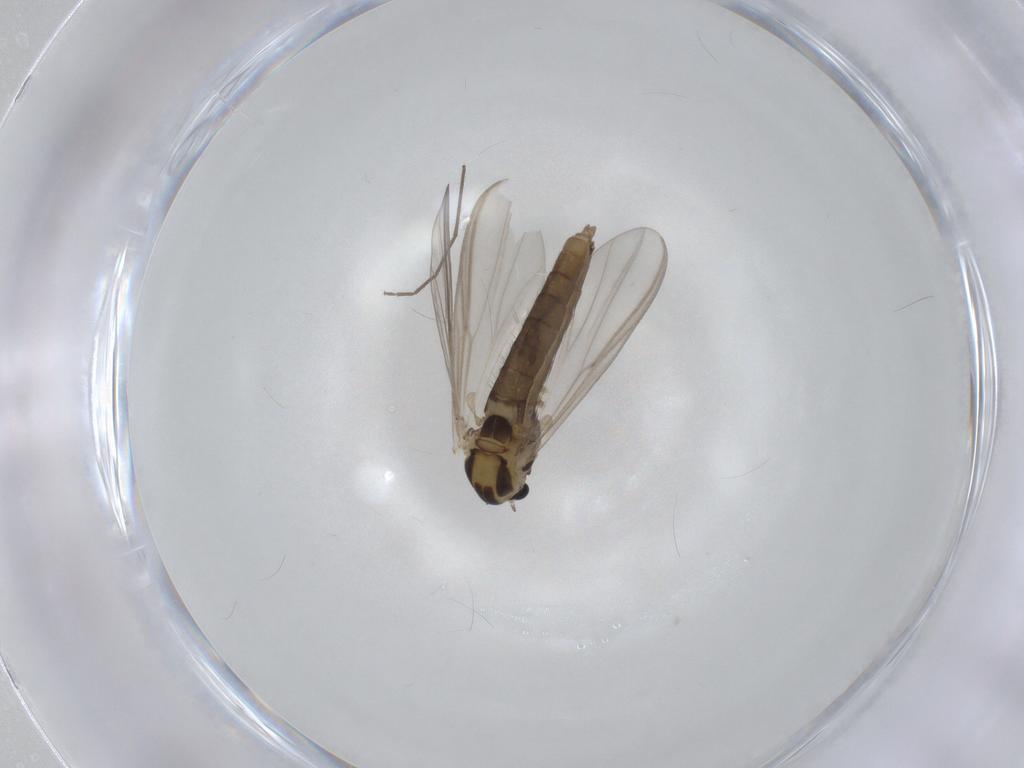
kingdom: Animalia
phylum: Arthropoda
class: Insecta
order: Diptera
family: Chironomidae
